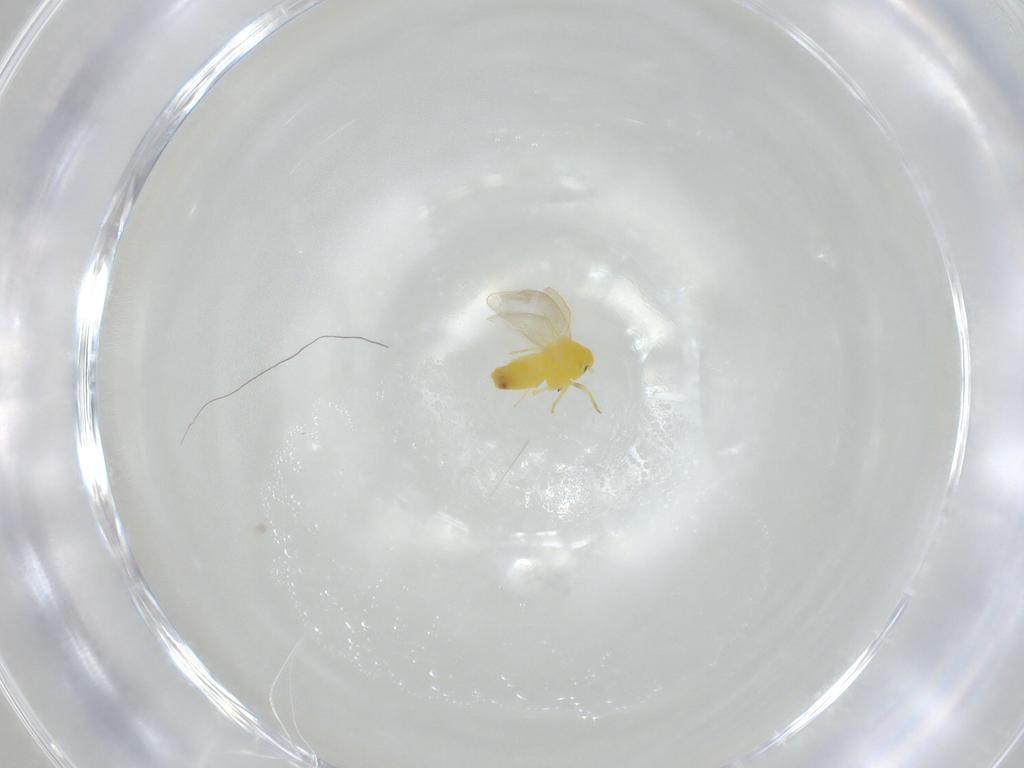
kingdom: Animalia
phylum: Arthropoda
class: Insecta
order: Hemiptera
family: Aleyrodidae
